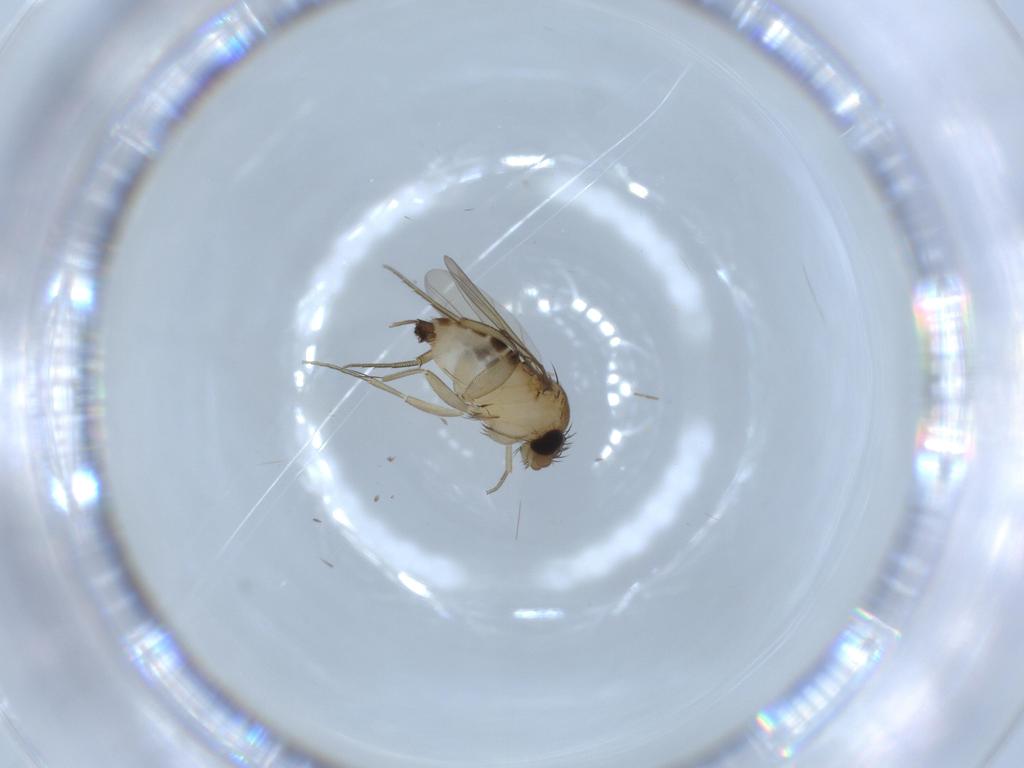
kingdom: Animalia
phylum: Arthropoda
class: Insecta
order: Diptera
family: Phoridae
